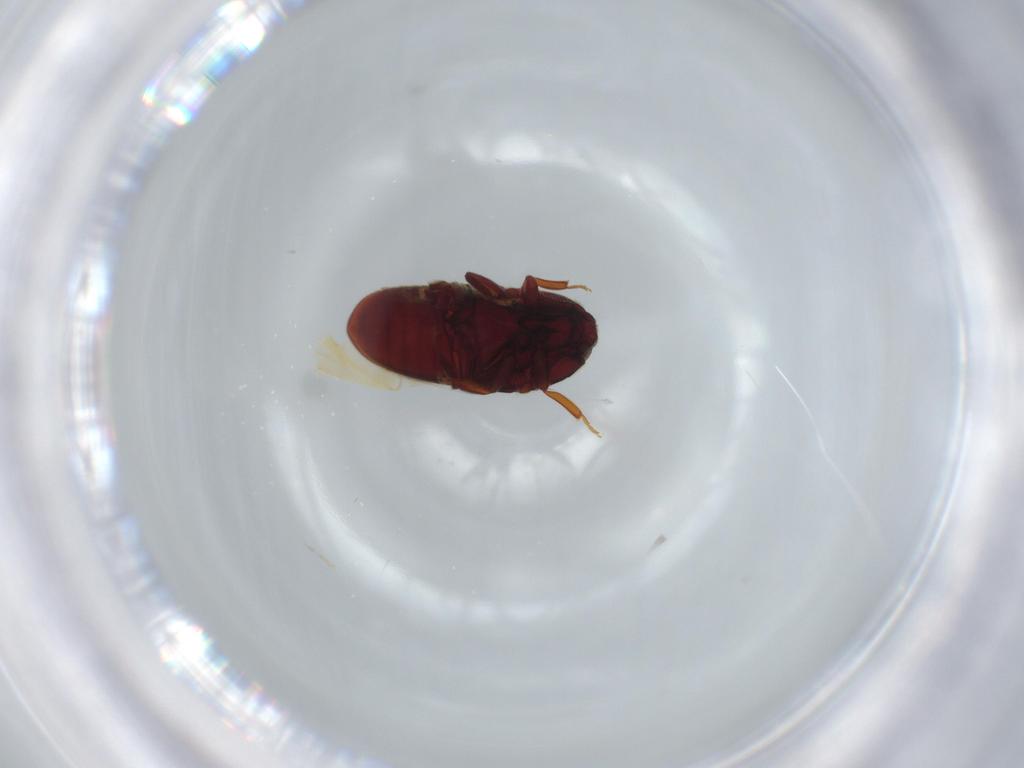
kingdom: Animalia
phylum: Arthropoda
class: Insecta
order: Coleoptera
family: Throscidae
